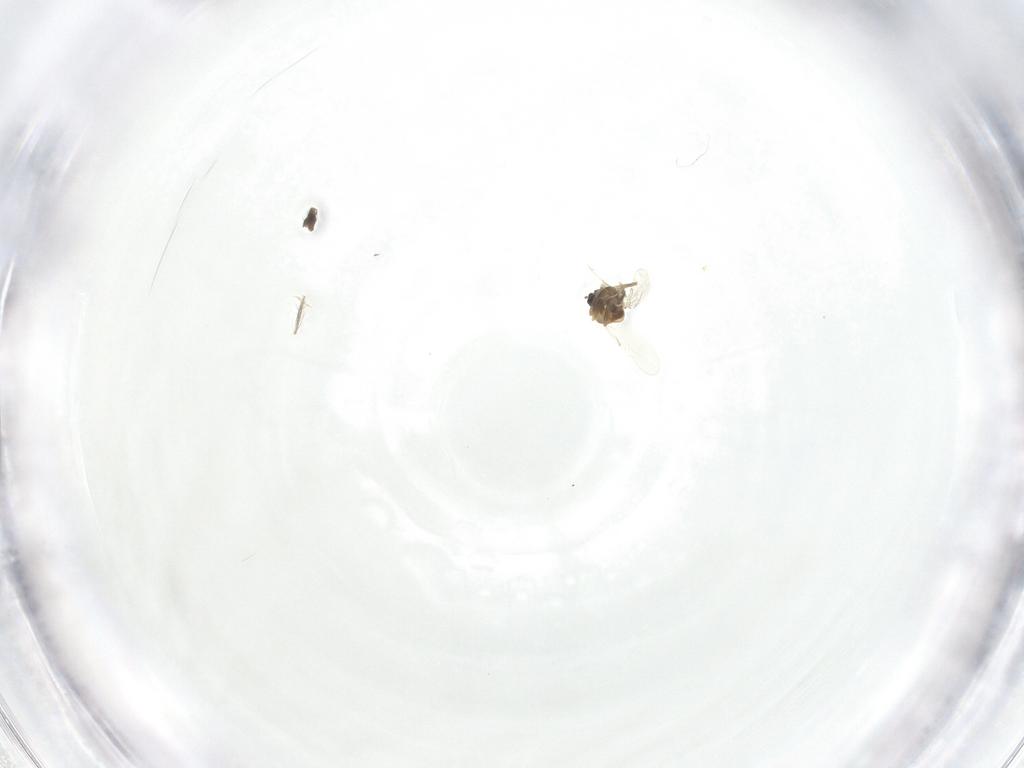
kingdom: Animalia
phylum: Arthropoda
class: Insecta
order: Diptera
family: Empididae
